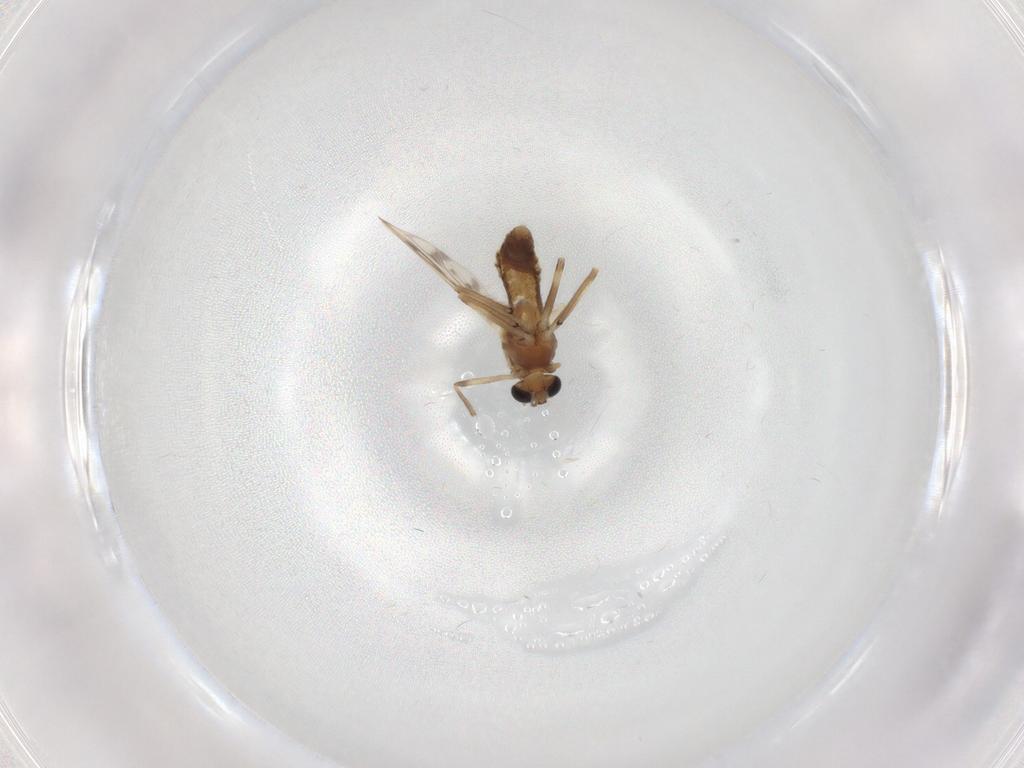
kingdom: Animalia
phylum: Arthropoda
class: Insecta
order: Diptera
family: Chironomidae
